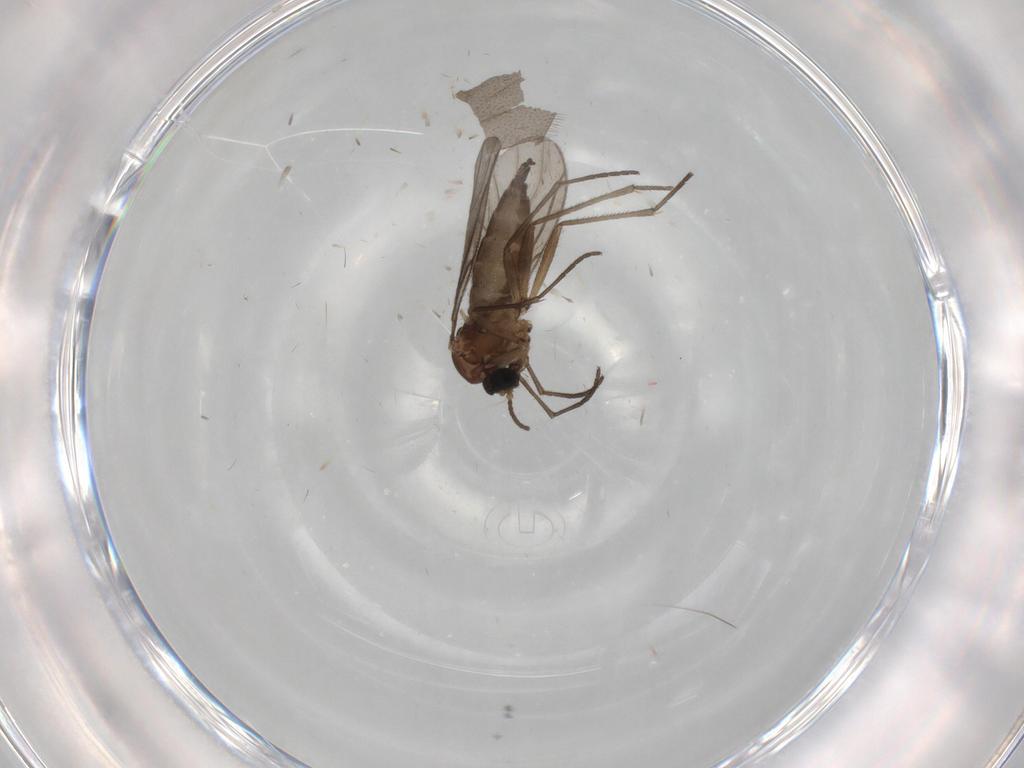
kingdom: Animalia
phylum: Arthropoda
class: Insecta
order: Diptera
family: Sciaridae
